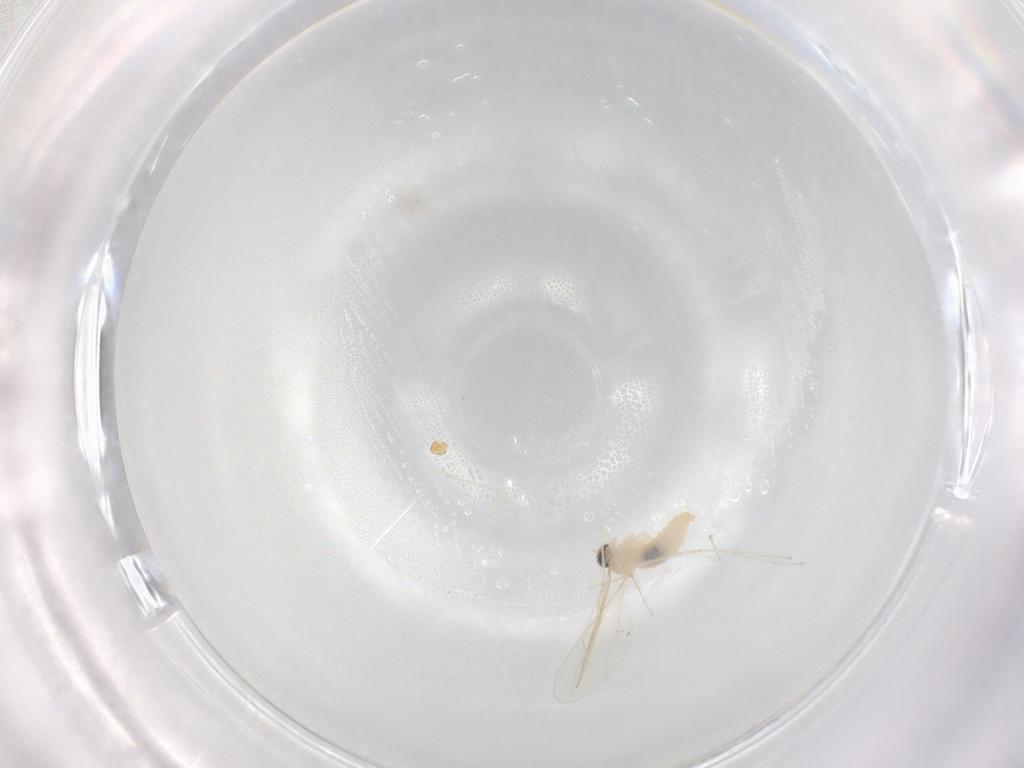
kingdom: Animalia
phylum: Arthropoda
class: Insecta
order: Diptera
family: Cecidomyiidae
